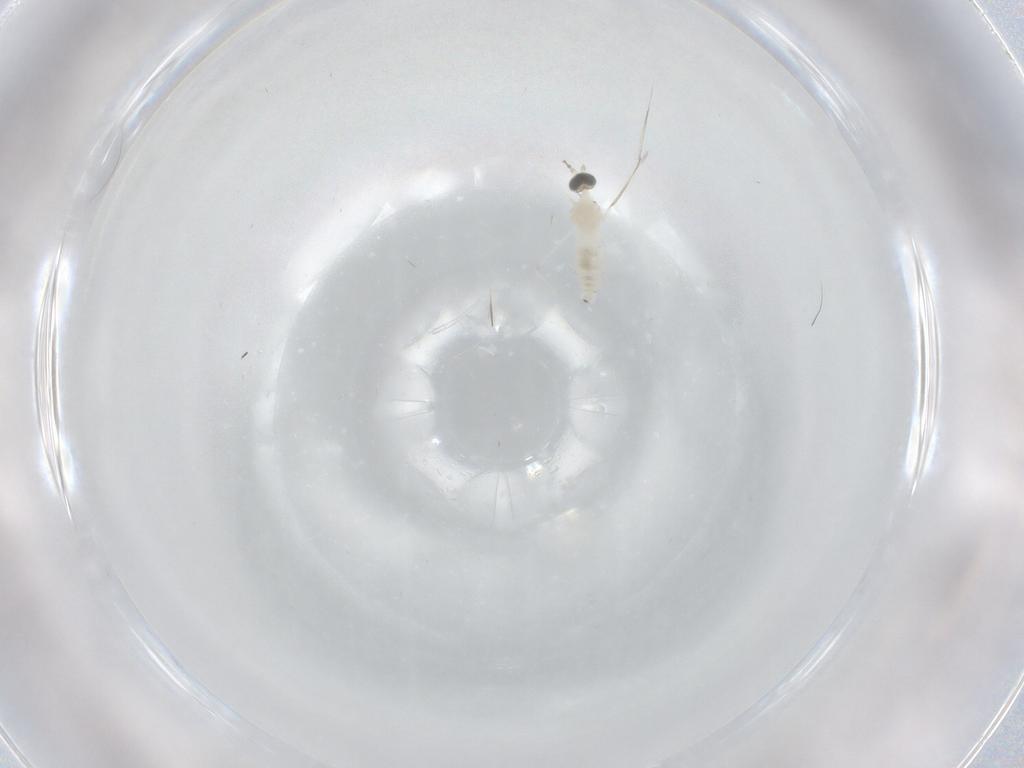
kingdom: Animalia
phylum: Arthropoda
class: Insecta
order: Diptera
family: Cecidomyiidae
